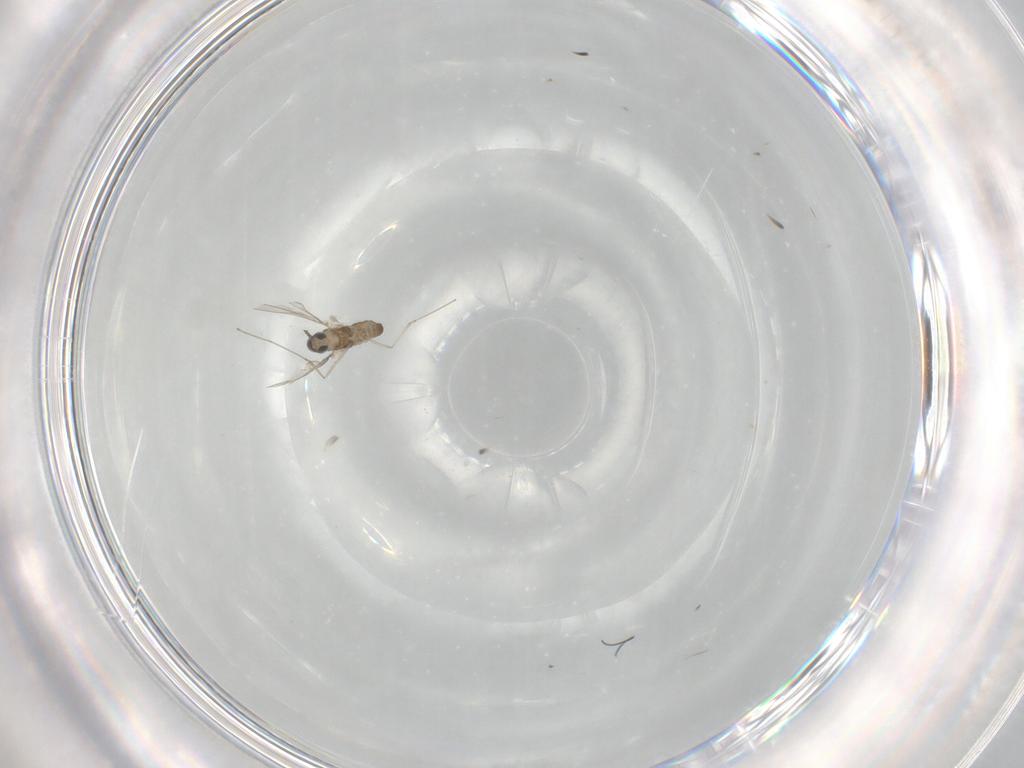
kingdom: Animalia
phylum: Arthropoda
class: Insecta
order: Diptera
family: Cecidomyiidae
